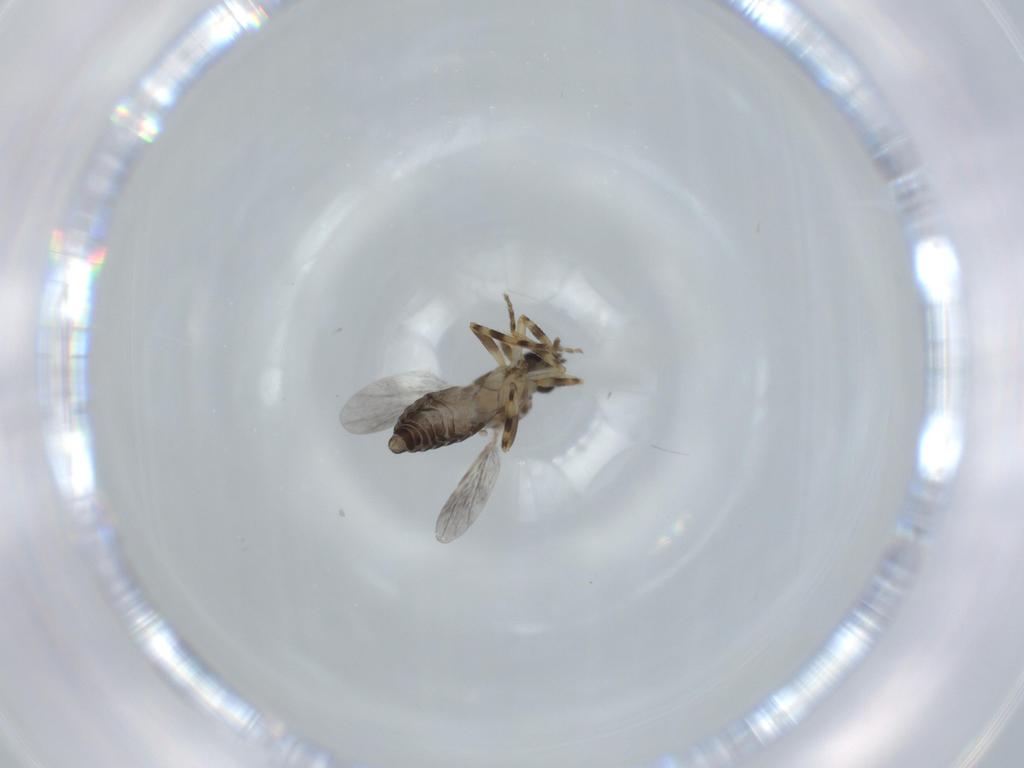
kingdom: Animalia
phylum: Arthropoda
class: Insecta
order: Diptera
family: Ceratopogonidae
